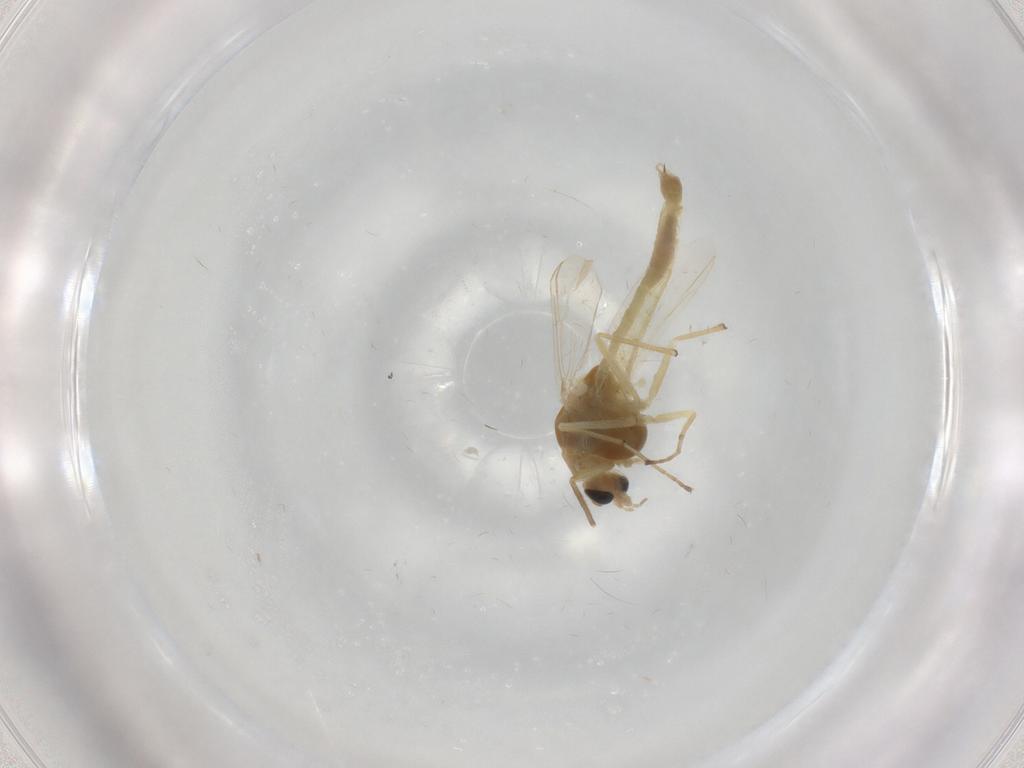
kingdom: Animalia
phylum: Arthropoda
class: Insecta
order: Diptera
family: Chironomidae
